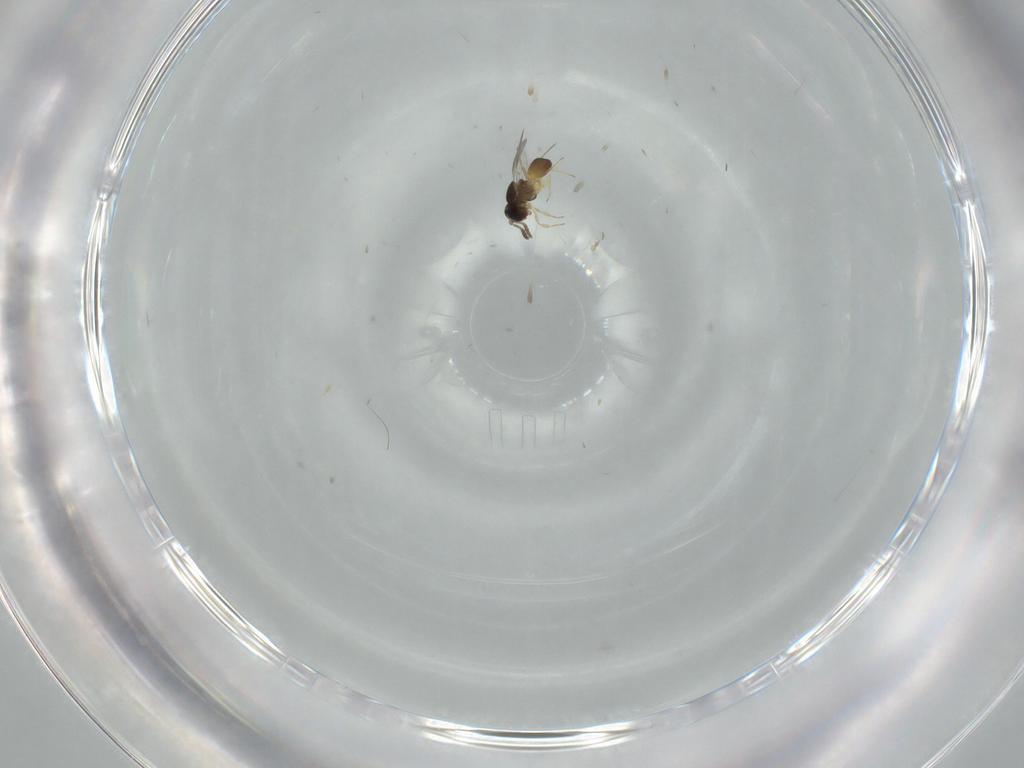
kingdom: Animalia
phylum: Arthropoda
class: Insecta
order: Hymenoptera
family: Scelionidae
